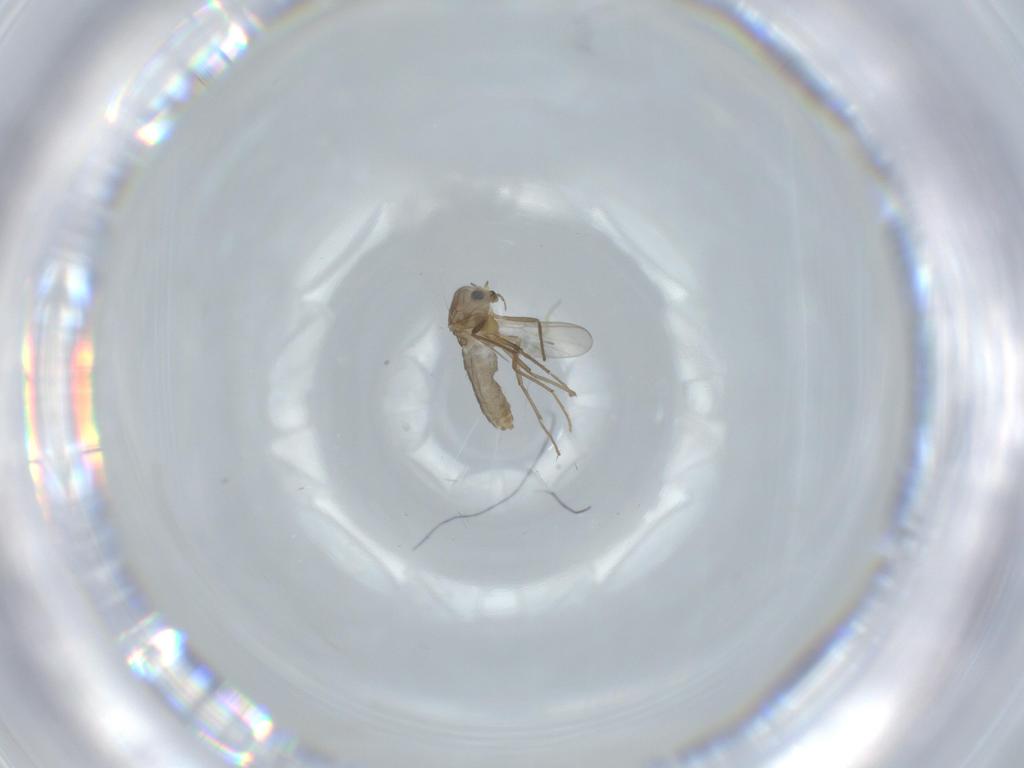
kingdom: Animalia
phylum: Arthropoda
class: Insecta
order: Diptera
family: Chironomidae
